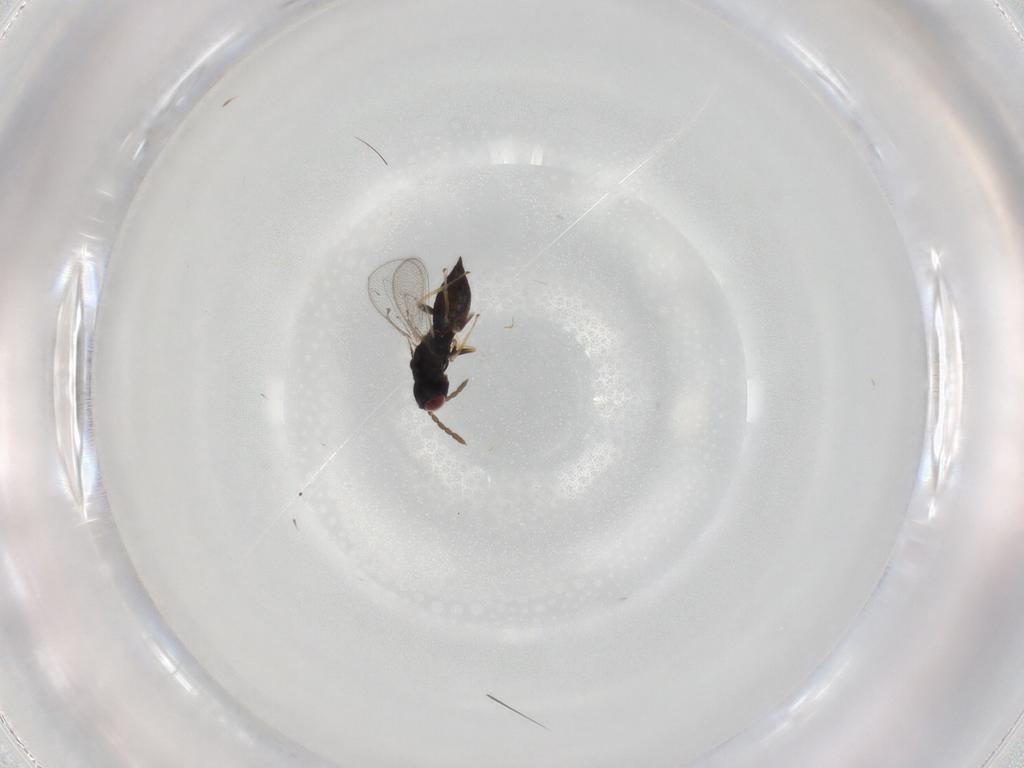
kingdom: Animalia
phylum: Arthropoda
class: Insecta
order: Hymenoptera
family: Eulophidae
